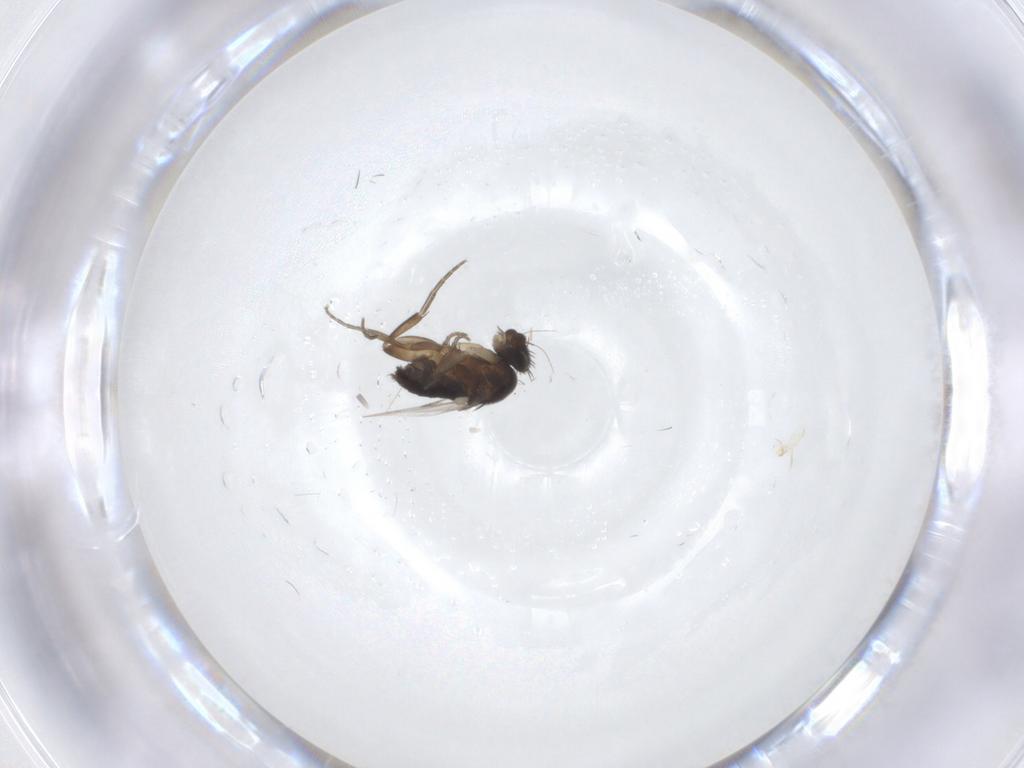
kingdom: Animalia
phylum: Arthropoda
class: Insecta
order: Diptera
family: Phoridae
